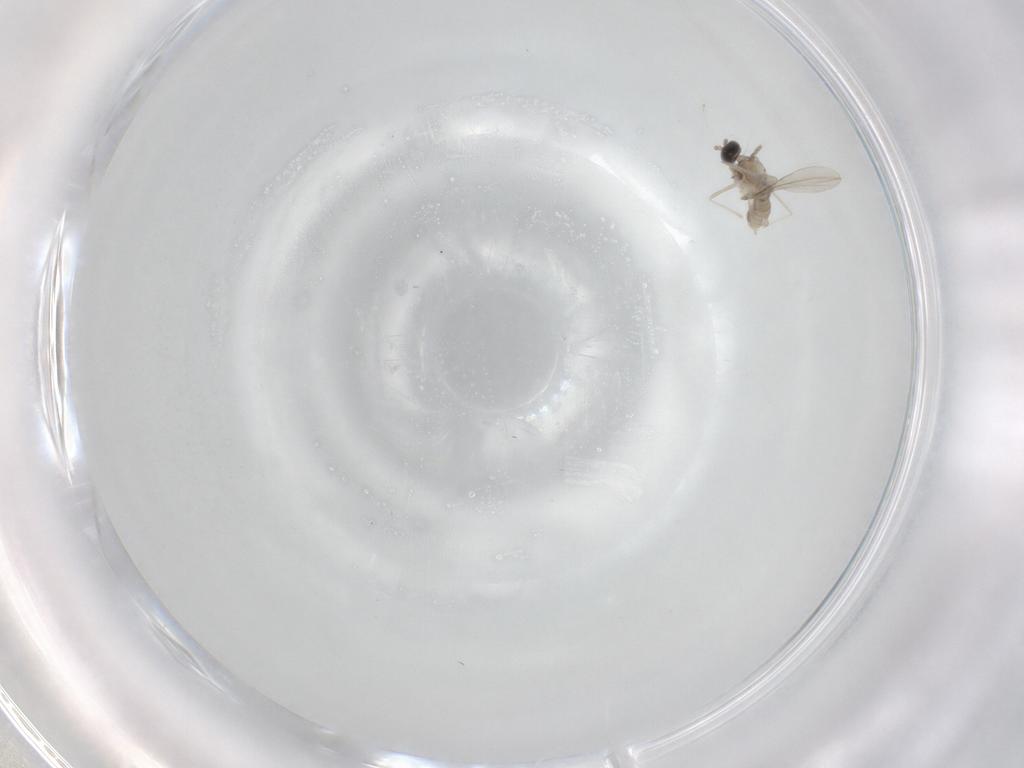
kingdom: Animalia
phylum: Arthropoda
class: Insecta
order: Diptera
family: Cecidomyiidae
